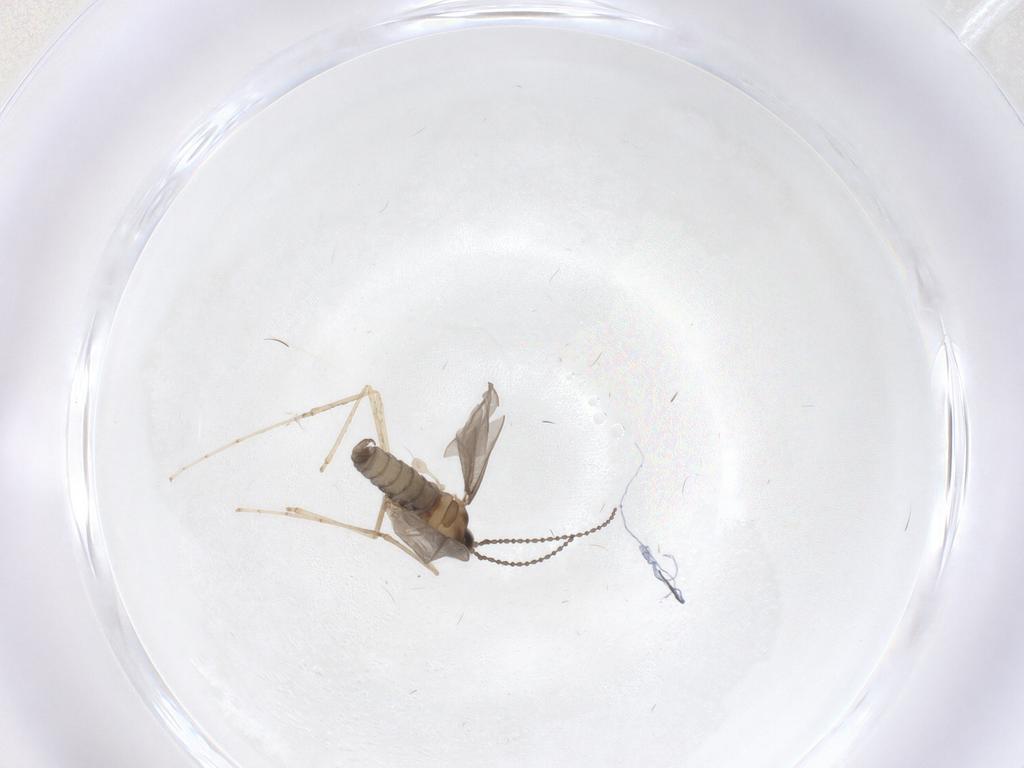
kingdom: Animalia
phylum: Arthropoda
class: Insecta
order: Diptera
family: Cecidomyiidae
